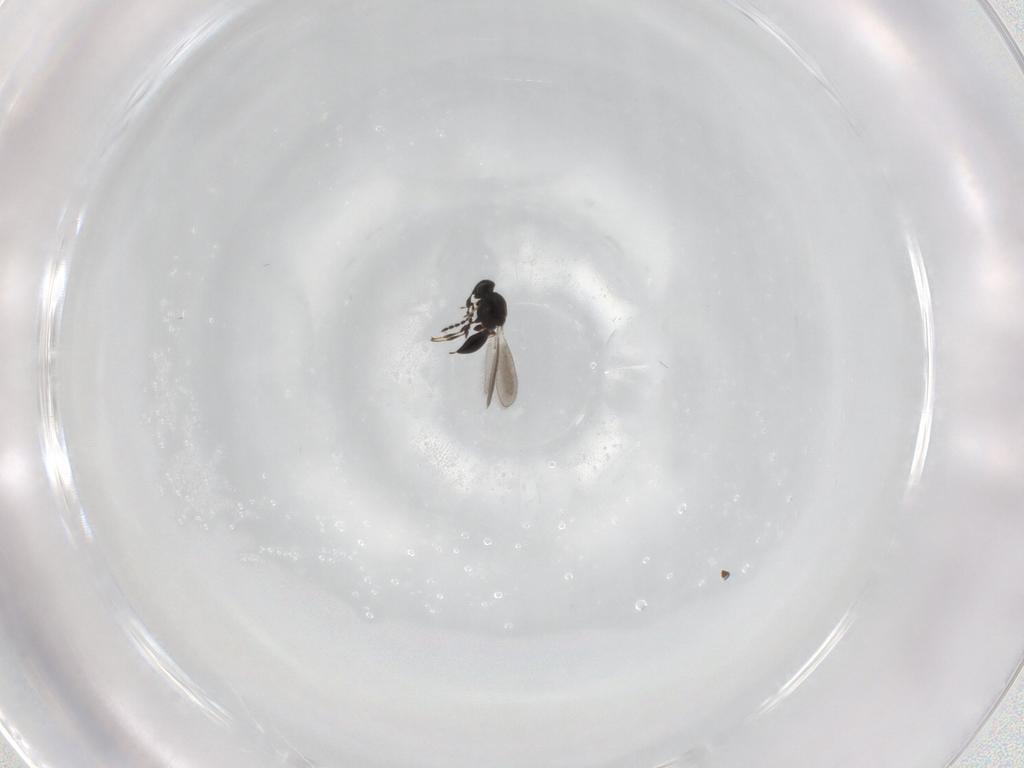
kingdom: Animalia
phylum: Arthropoda
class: Insecta
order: Hymenoptera
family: Platygastridae
